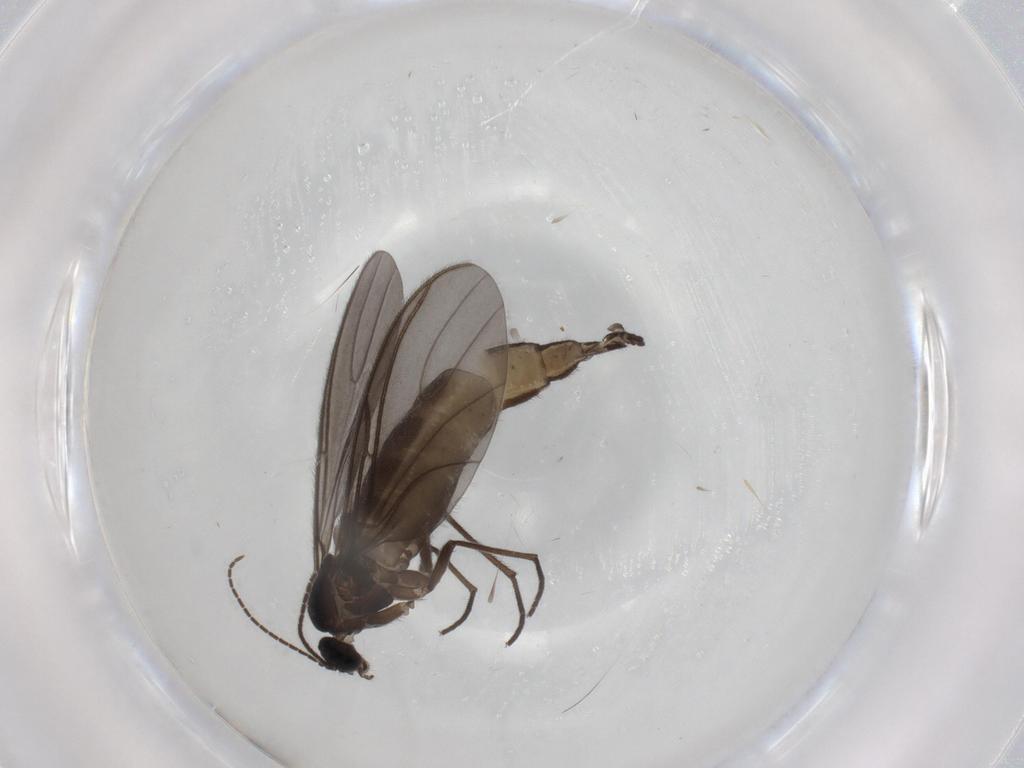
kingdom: Animalia
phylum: Arthropoda
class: Insecta
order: Diptera
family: Sciaridae
